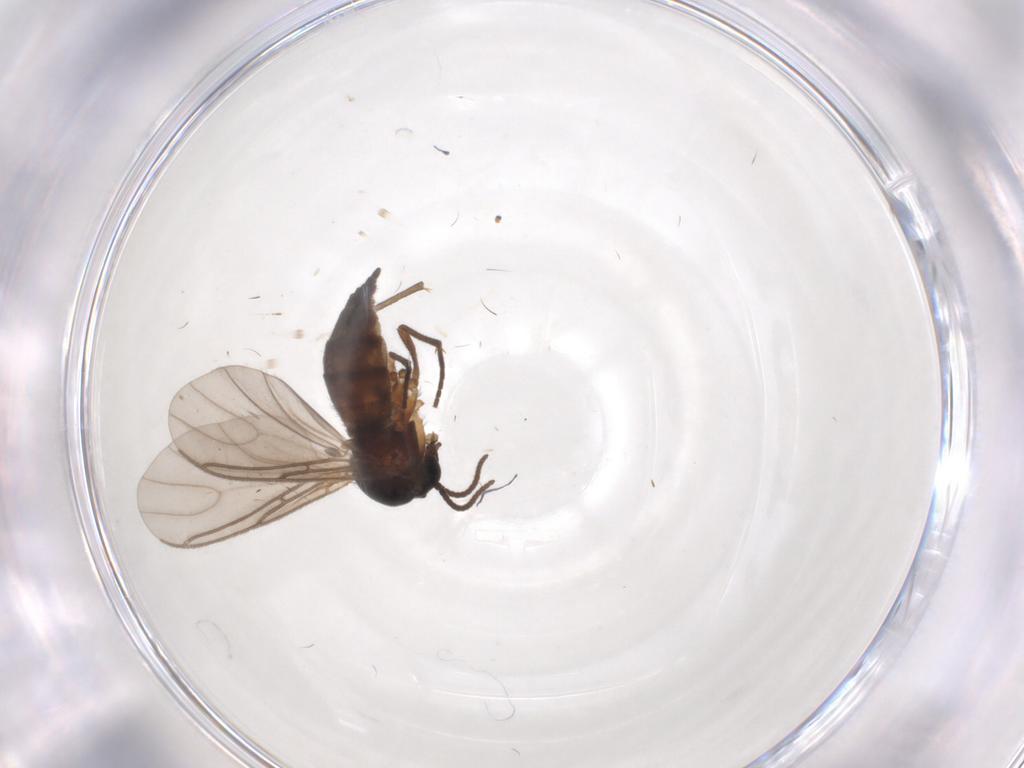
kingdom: Animalia
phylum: Arthropoda
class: Insecta
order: Diptera
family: Sciaridae
